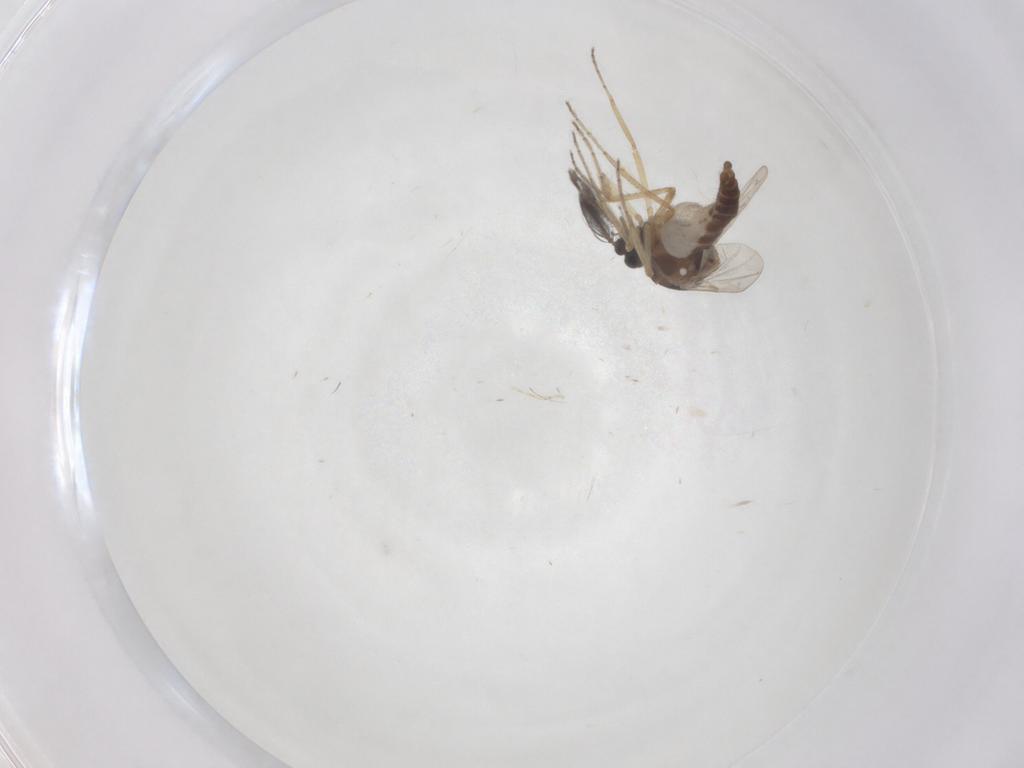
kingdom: Animalia
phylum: Arthropoda
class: Insecta
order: Diptera
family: Ceratopogonidae
